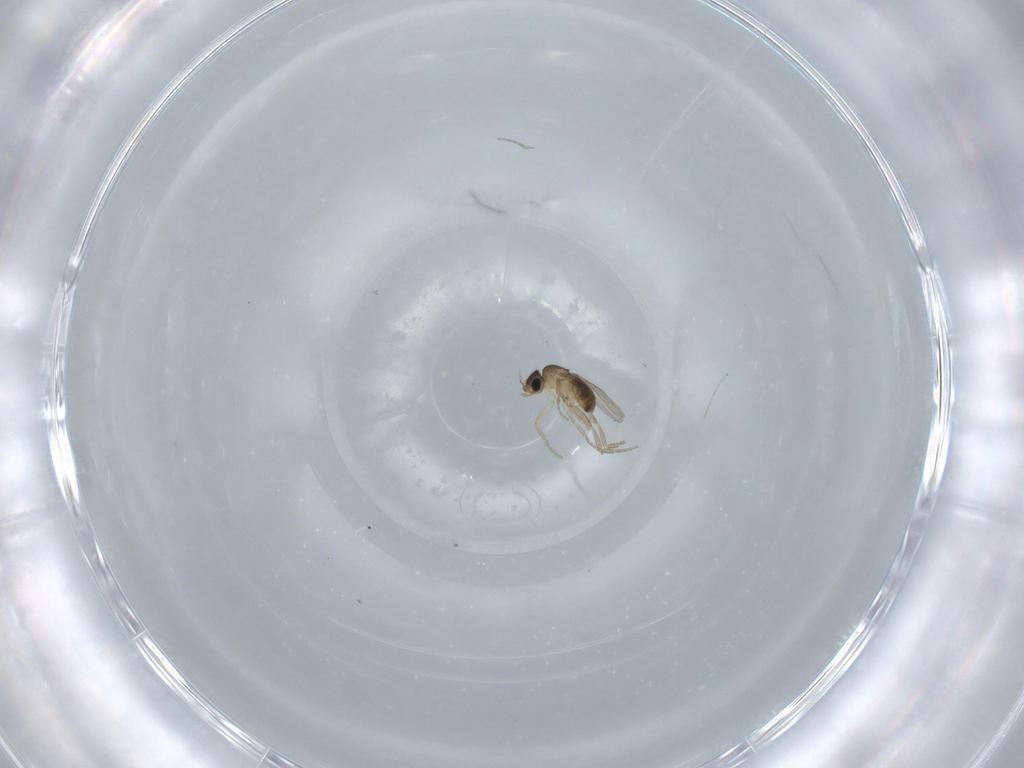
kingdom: Animalia
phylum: Arthropoda
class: Insecta
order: Diptera
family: Phoridae
